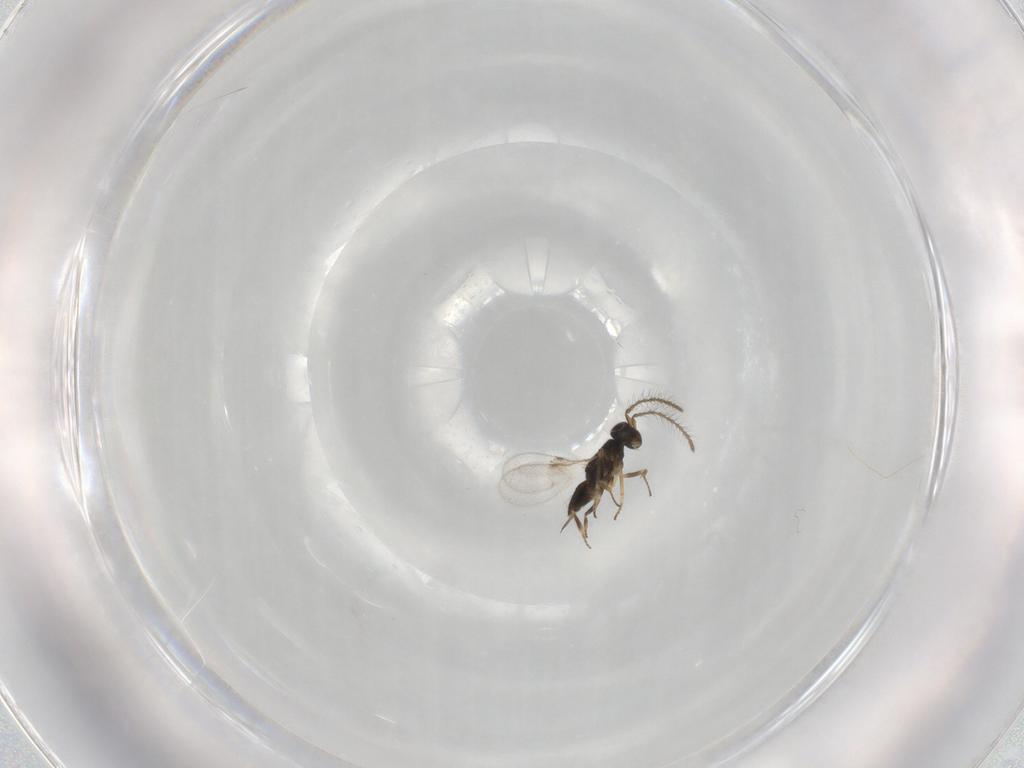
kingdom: Animalia
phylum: Arthropoda
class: Insecta
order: Hymenoptera
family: Encyrtidae
